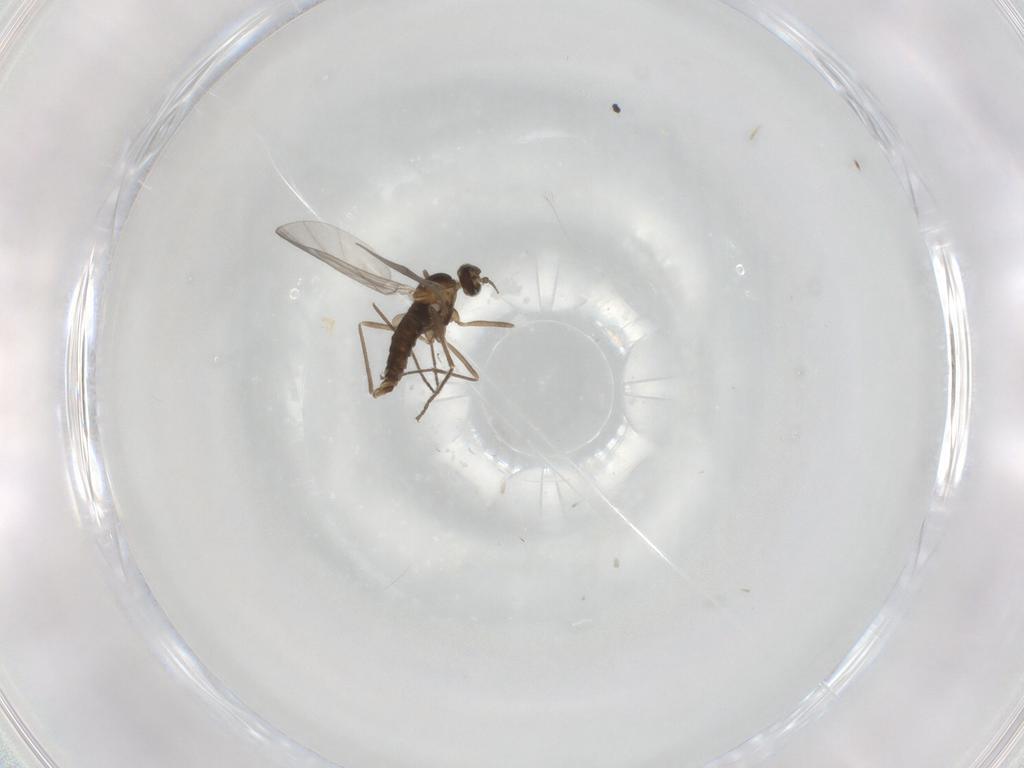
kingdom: Animalia
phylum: Arthropoda
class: Insecta
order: Diptera
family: Cecidomyiidae
